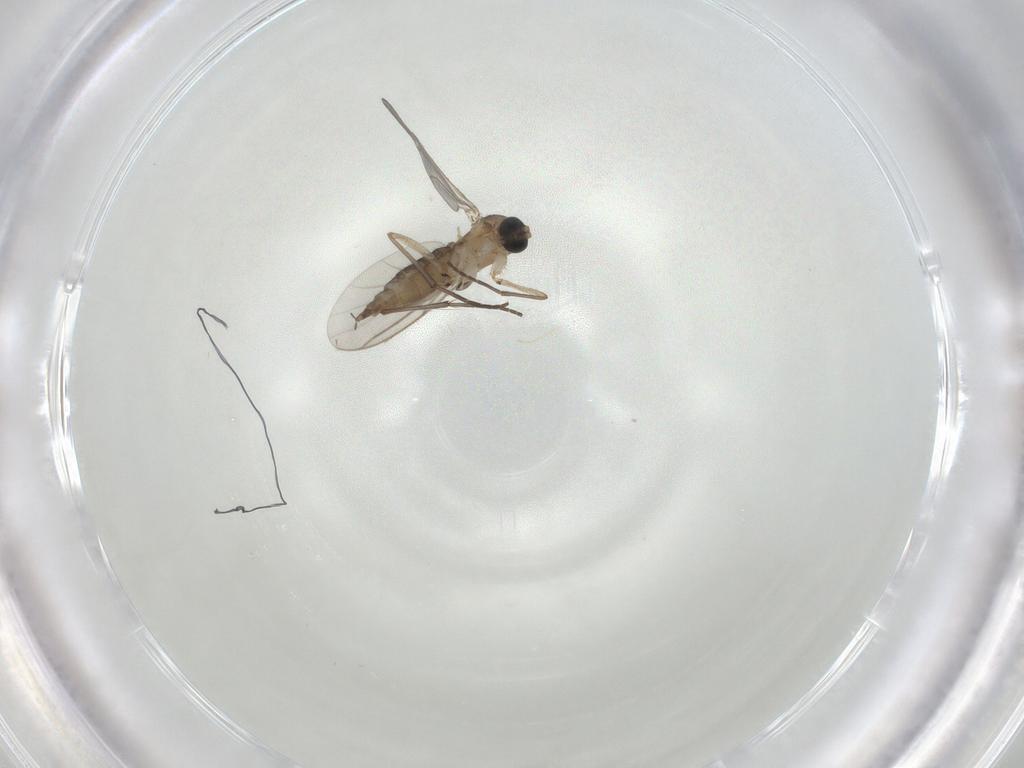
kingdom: Animalia
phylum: Arthropoda
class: Insecta
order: Diptera
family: Sciaridae
